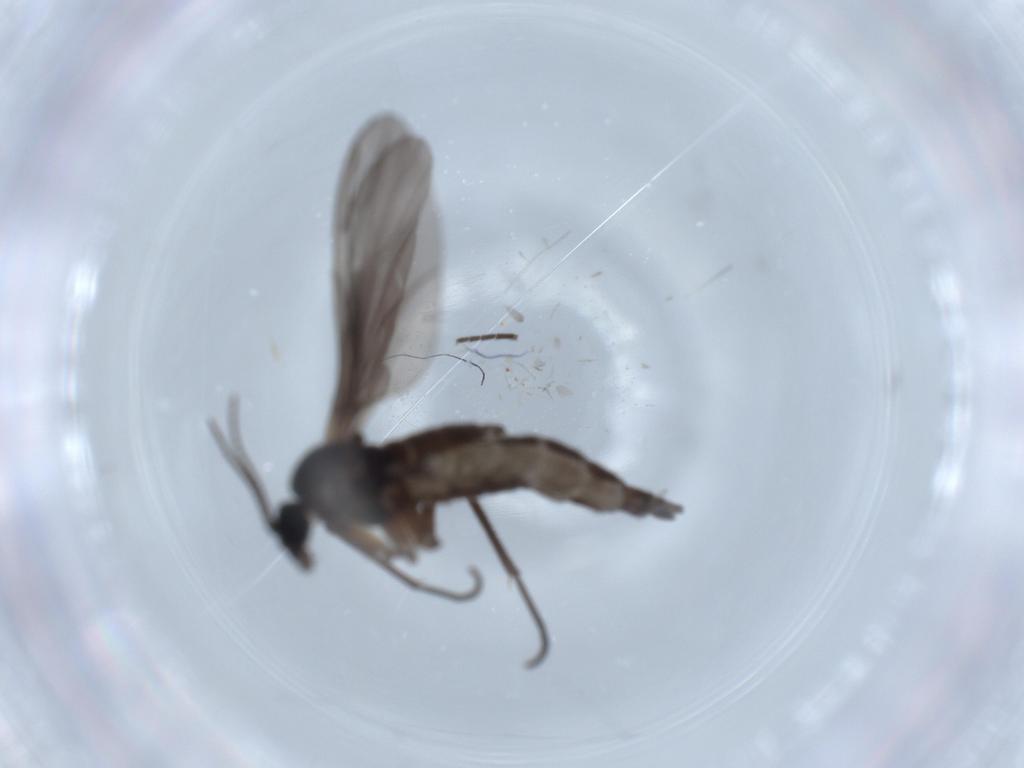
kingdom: Animalia
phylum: Arthropoda
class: Insecta
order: Diptera
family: Sciaridae
